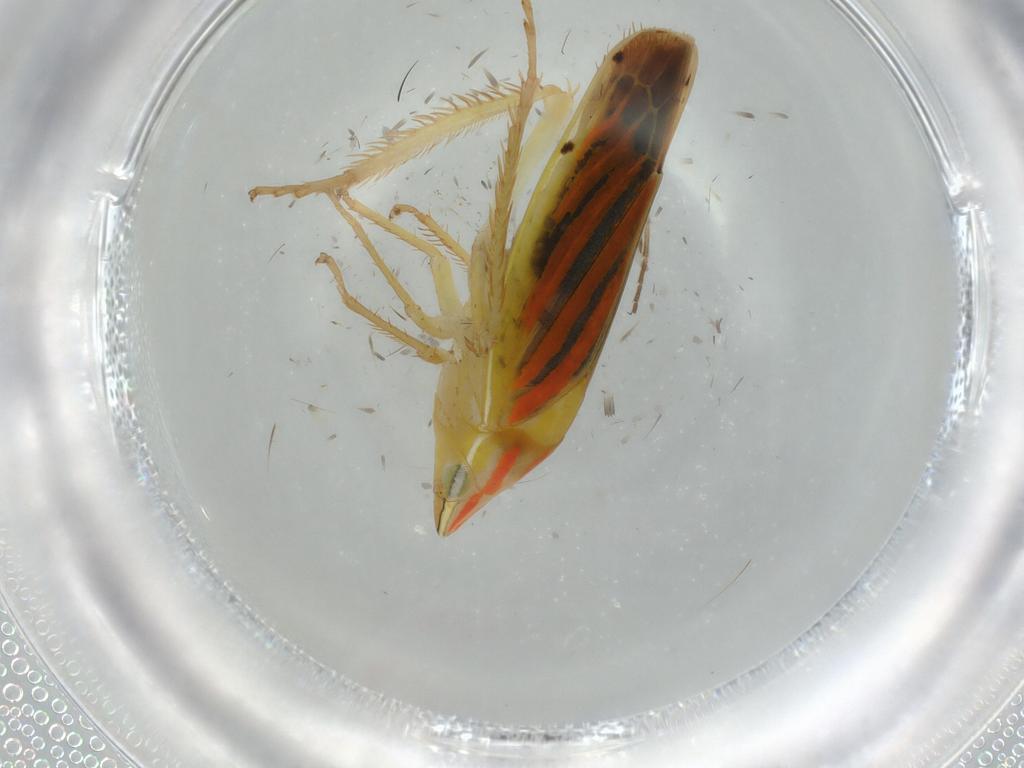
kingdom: Animalia
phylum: Arthropoda
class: Insecta
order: Hemiptera
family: Cicadellidae
